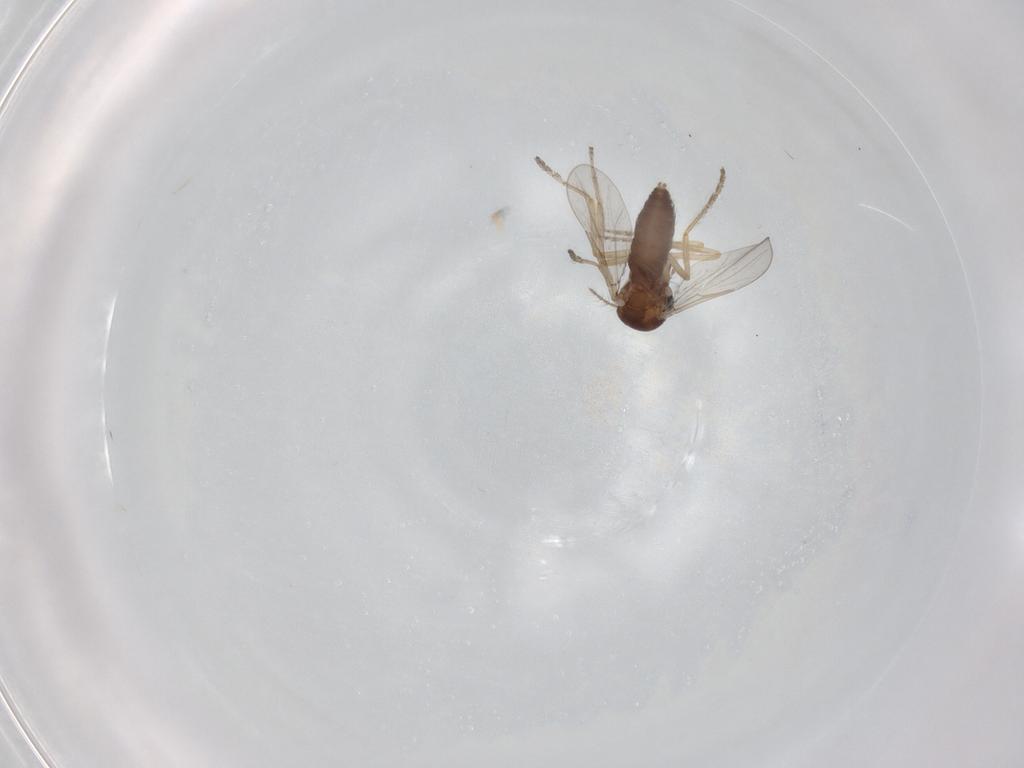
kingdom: Animalia
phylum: Arthropoda
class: Insecta
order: Diptera
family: Ceratopogonidae
